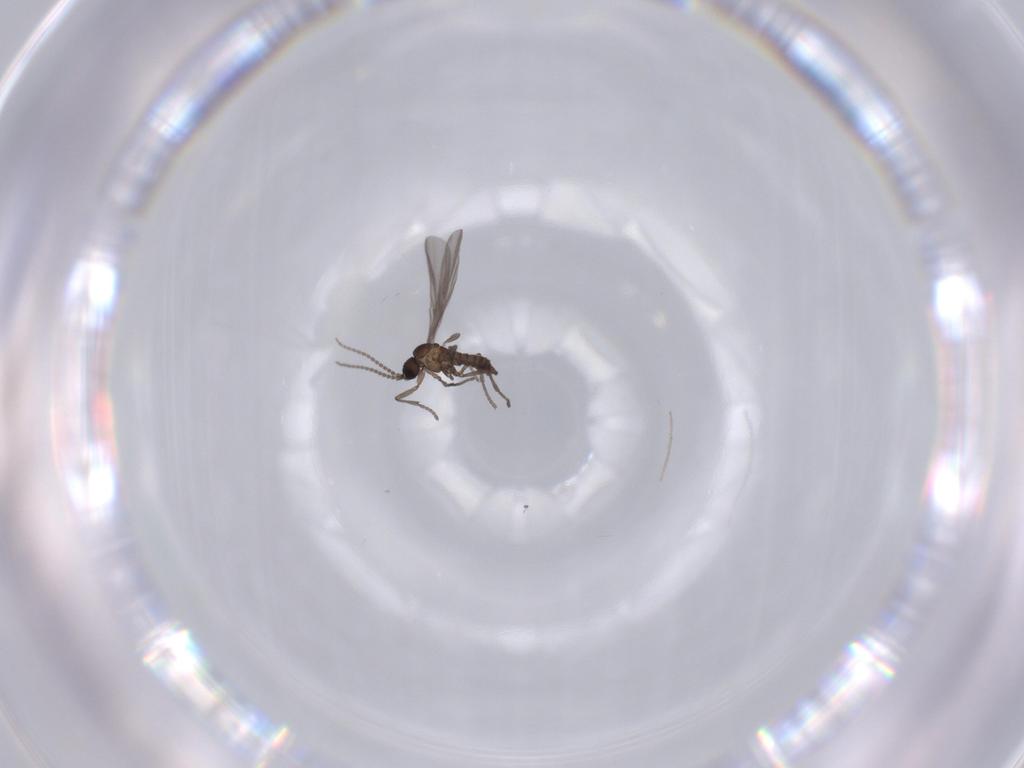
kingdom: Animalia
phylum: Arthropoda
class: Insecta
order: Diptera
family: Chironomidae
